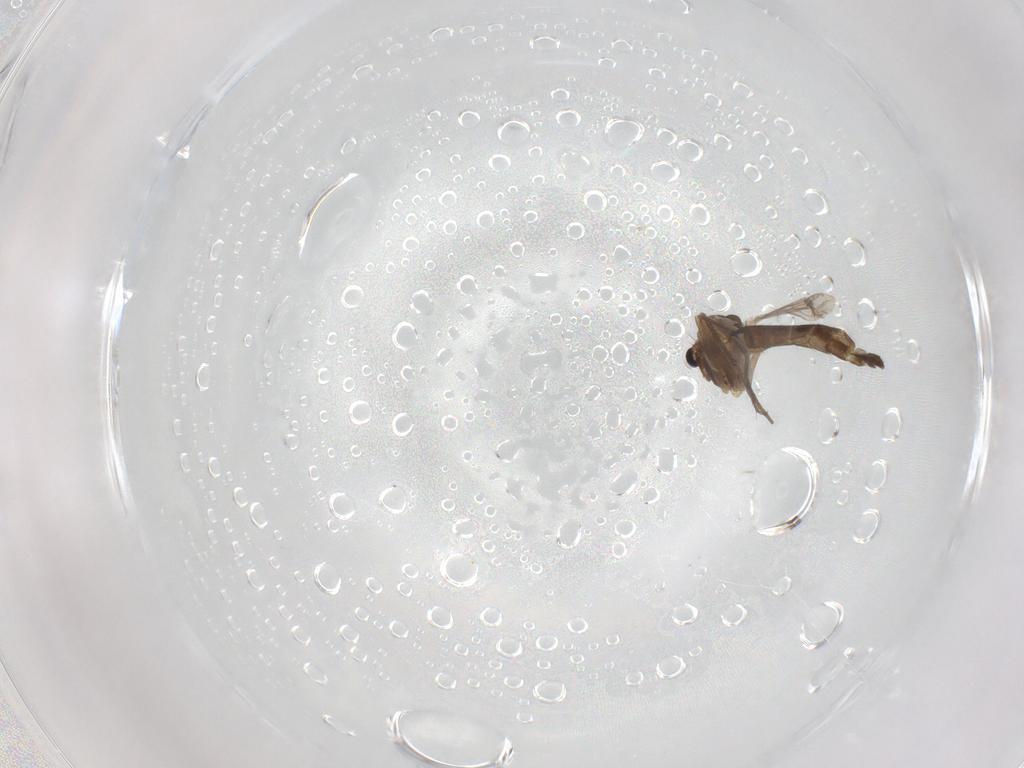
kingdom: Animalia
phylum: Arthropoda
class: Insecta
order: Diptera
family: Chironomidae
